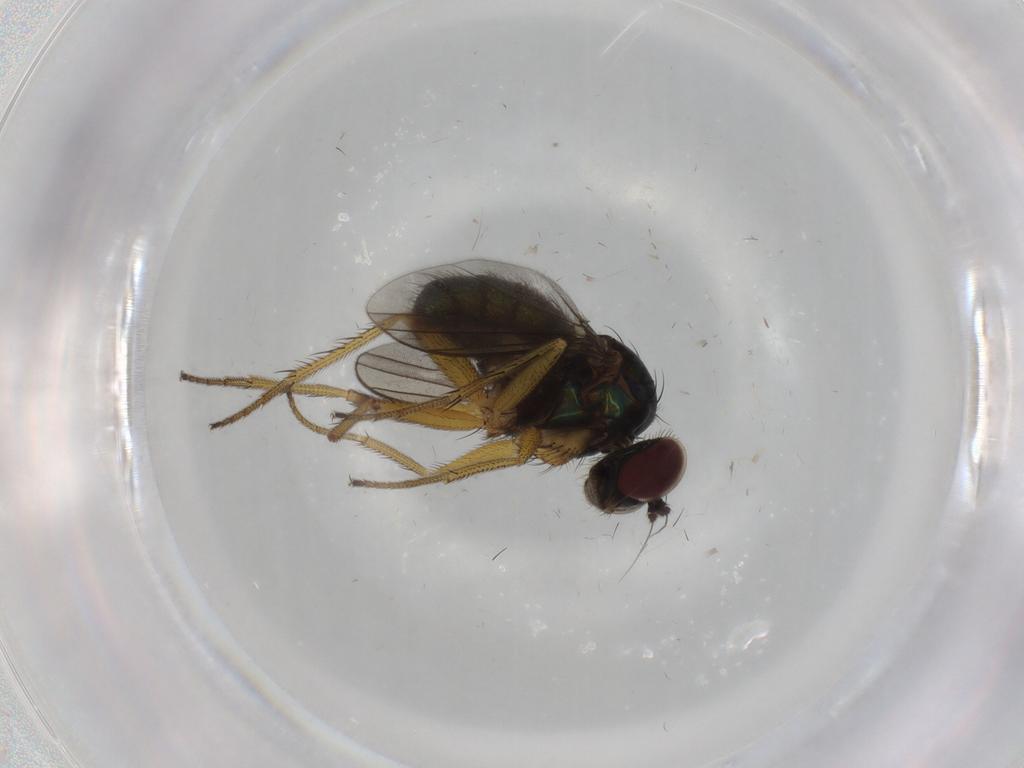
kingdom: Animalia
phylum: Arthropoda
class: Insecta
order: Diptera
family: Dolichopodidae
